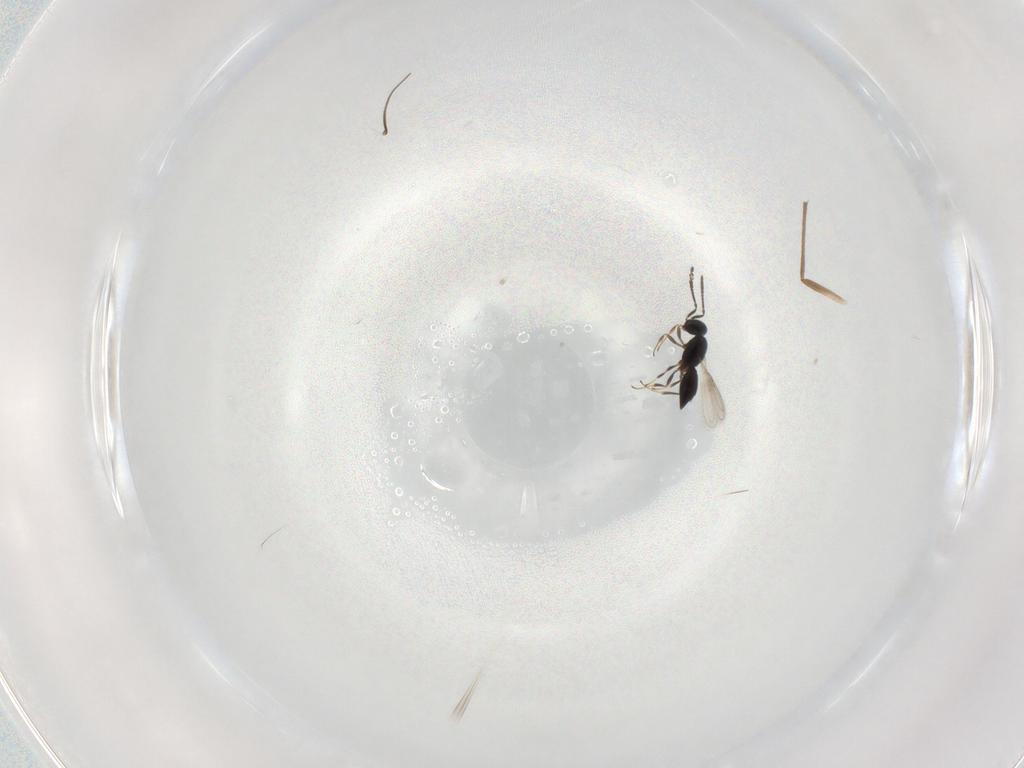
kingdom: Animalia
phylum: Arthropoda
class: Insecta
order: Hymenoptera
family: Scelionidae
